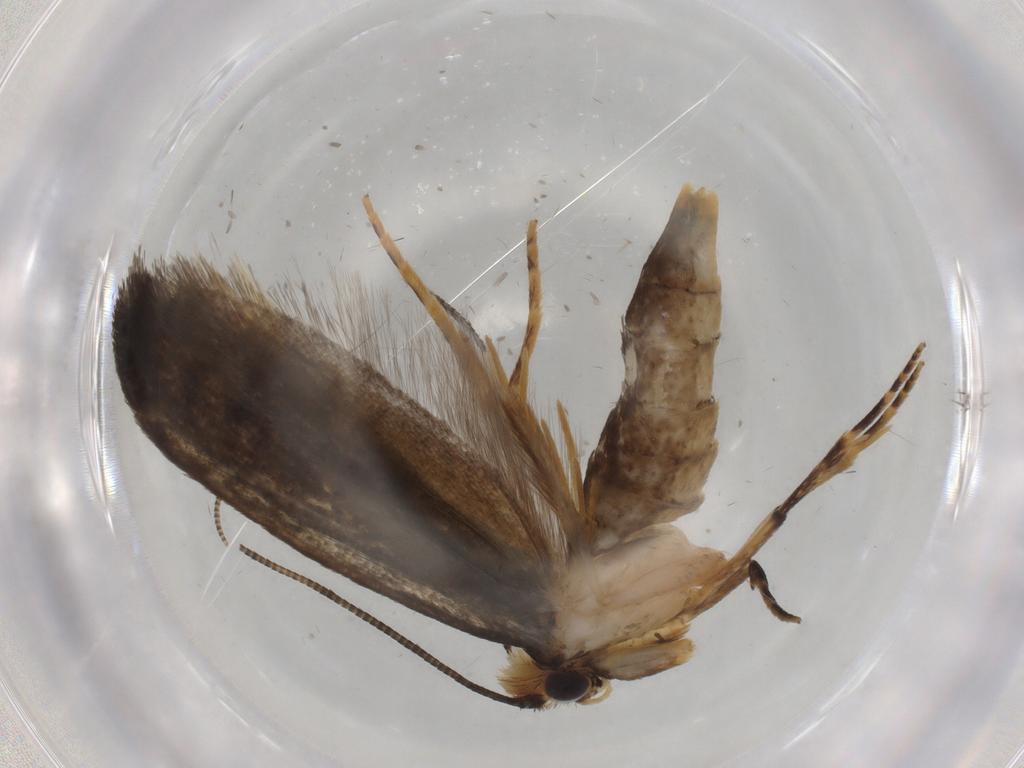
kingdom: Animalia
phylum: Arthropoda
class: Insecta
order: Lepidoptera
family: Tineidae
